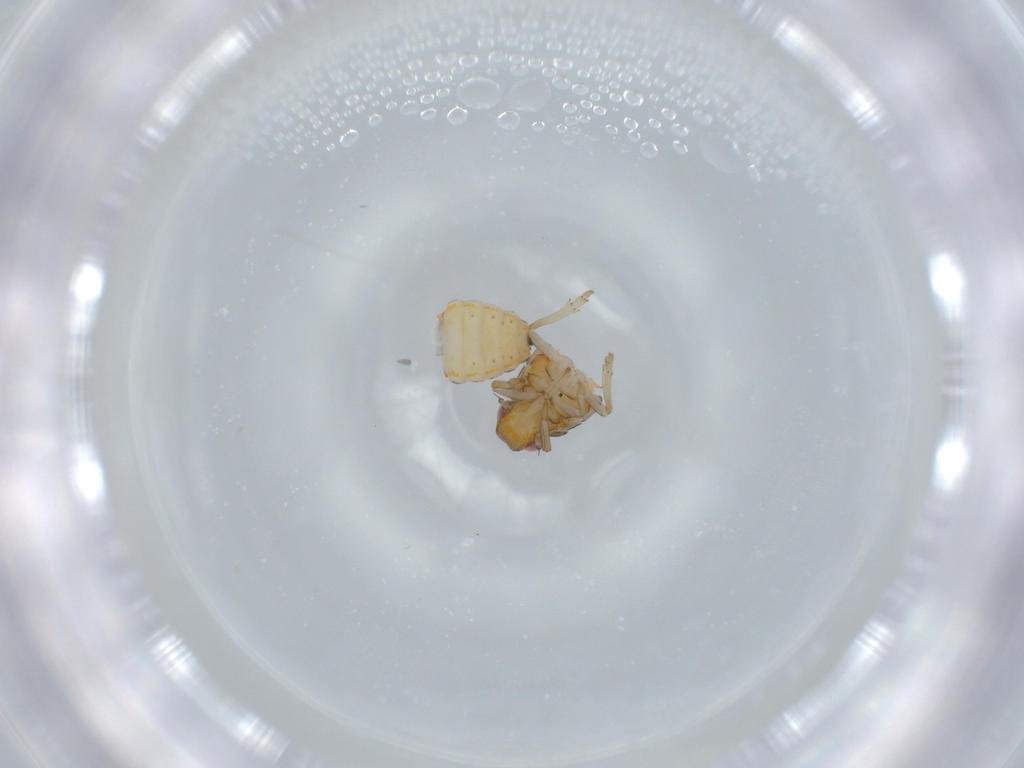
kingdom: Animalia
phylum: Arthropoda
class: Insecta
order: Hemiptera
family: Issidae
